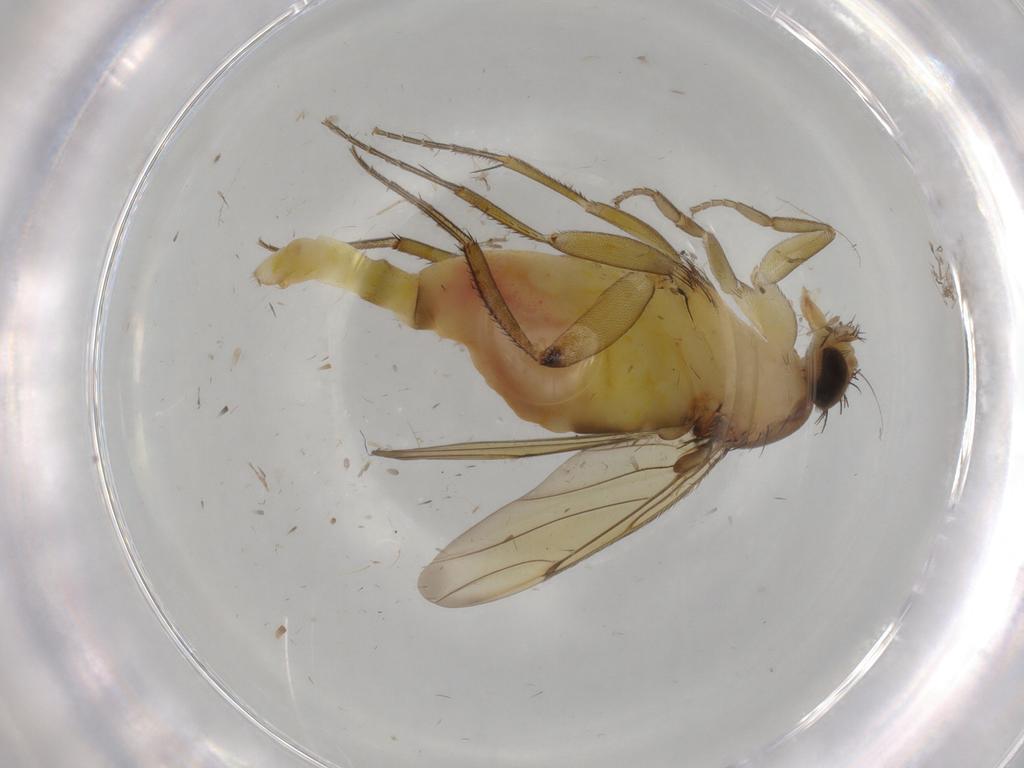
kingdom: Animalia
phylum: Arthropoda
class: Insecta
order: Diptera
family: Phoridae
